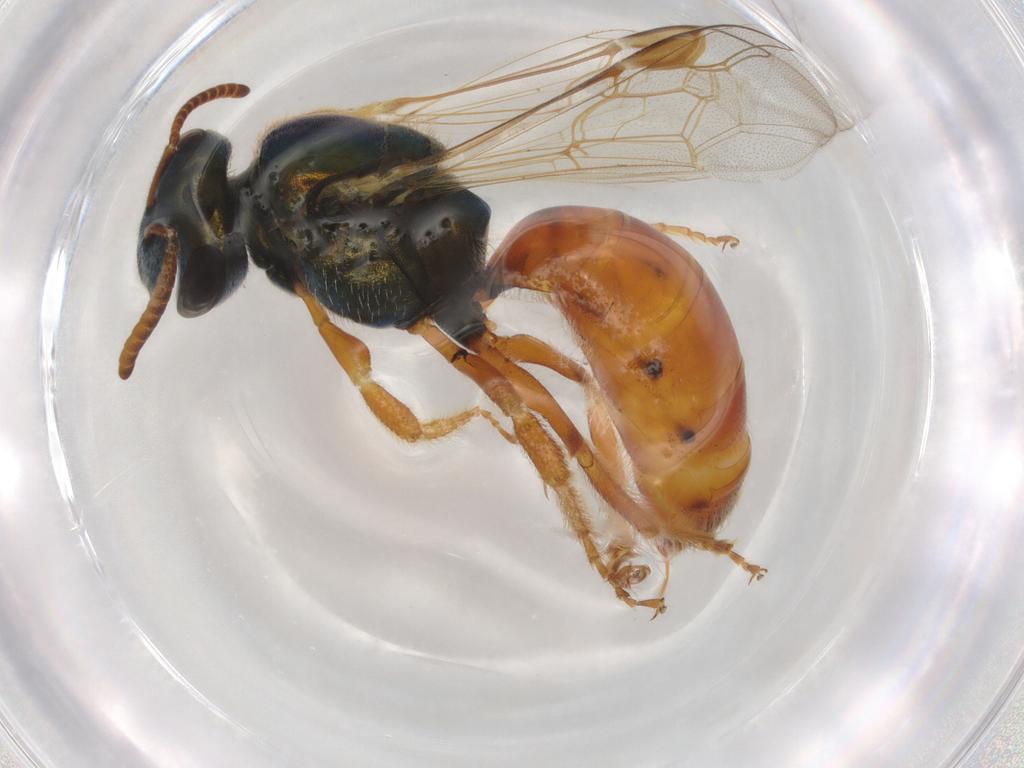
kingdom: Animalia
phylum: Arthropoda
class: Insecta
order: Hymenoptera
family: Halictidae
